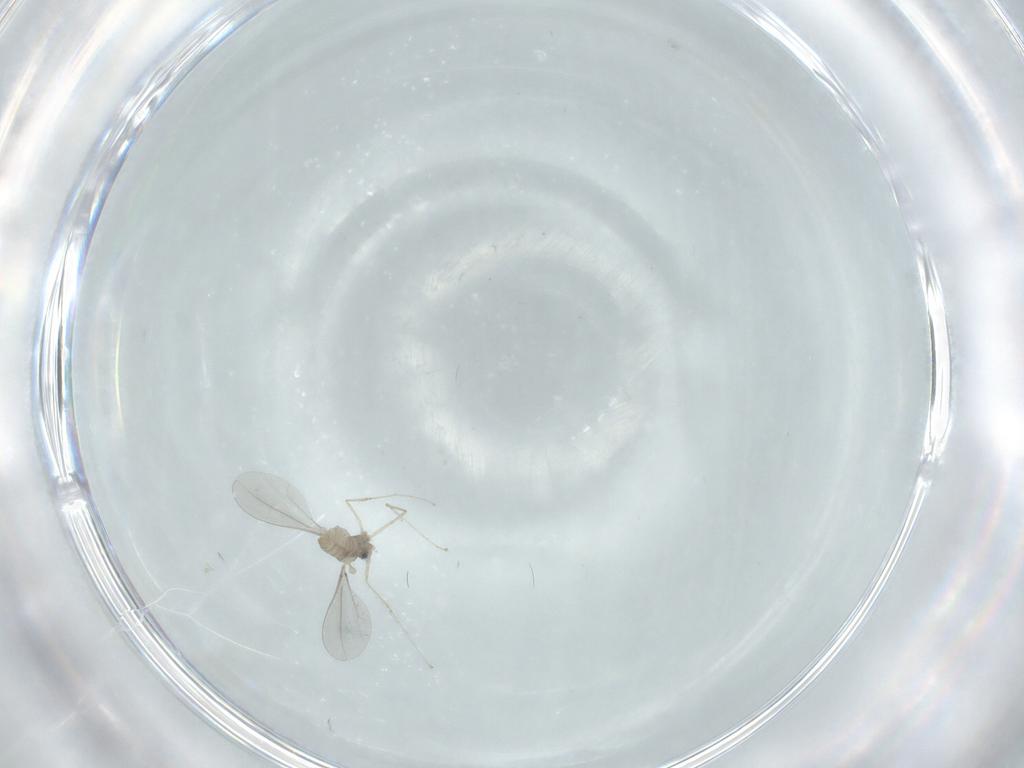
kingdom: Animalia
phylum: Arthropoda
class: Insecta
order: Diptera
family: Cecidomyiidae
